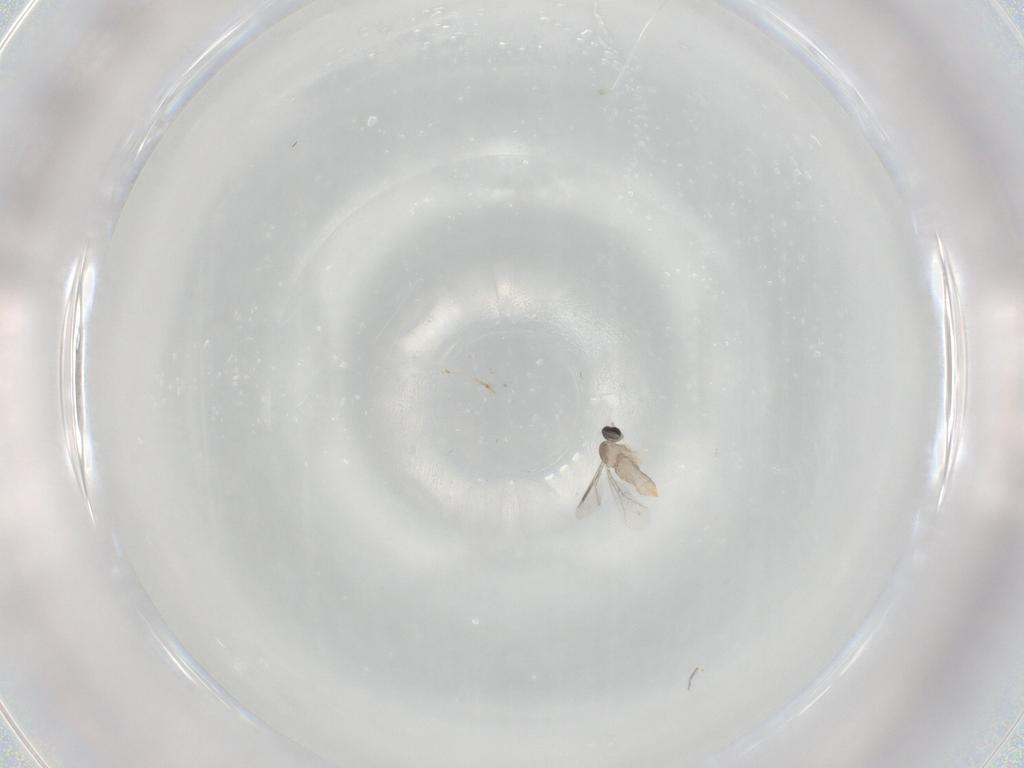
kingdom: Animalia
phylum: Arthropoda
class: Insecta
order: Diptera
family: Cecidomyiidae
